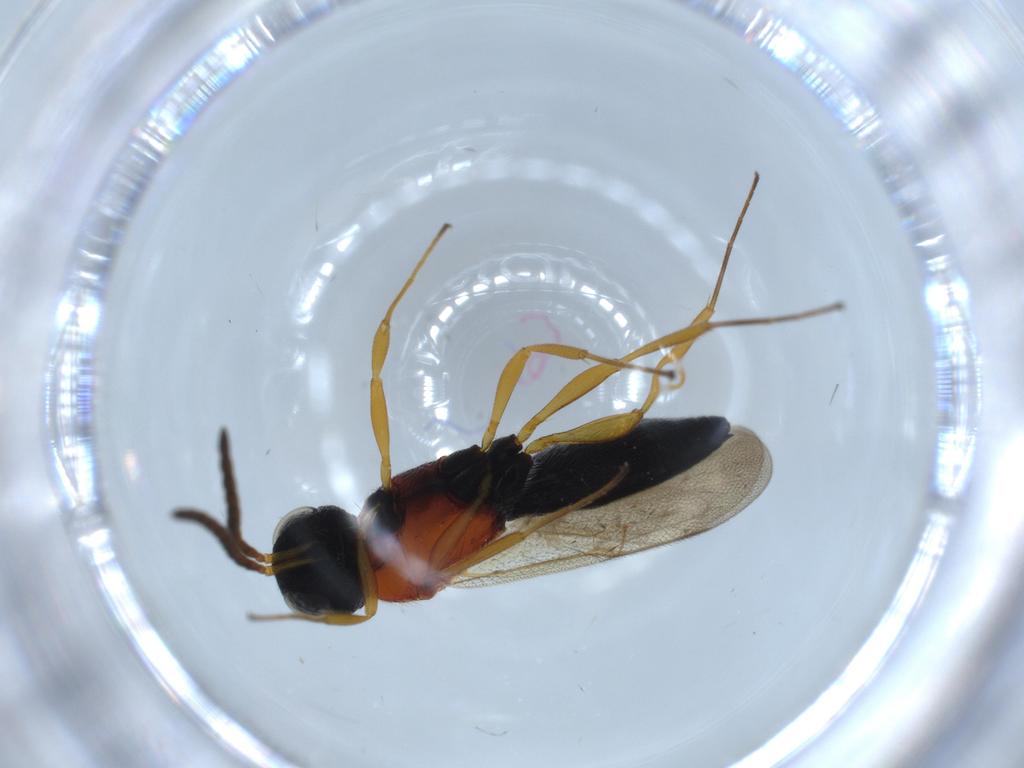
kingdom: Animalia
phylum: Arthropoda
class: Insecta
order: Hymenoptera
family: Scelionidae
